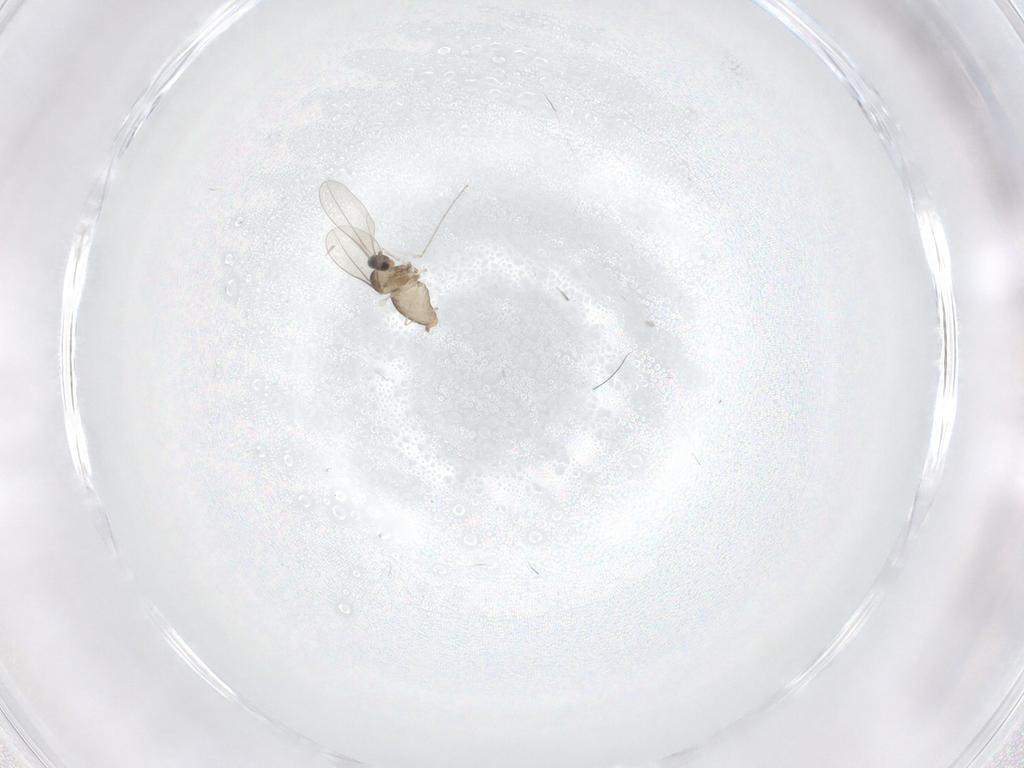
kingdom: Animalia
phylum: Arthropoda
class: Insecta
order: Diptera
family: Cecidomyiidae
